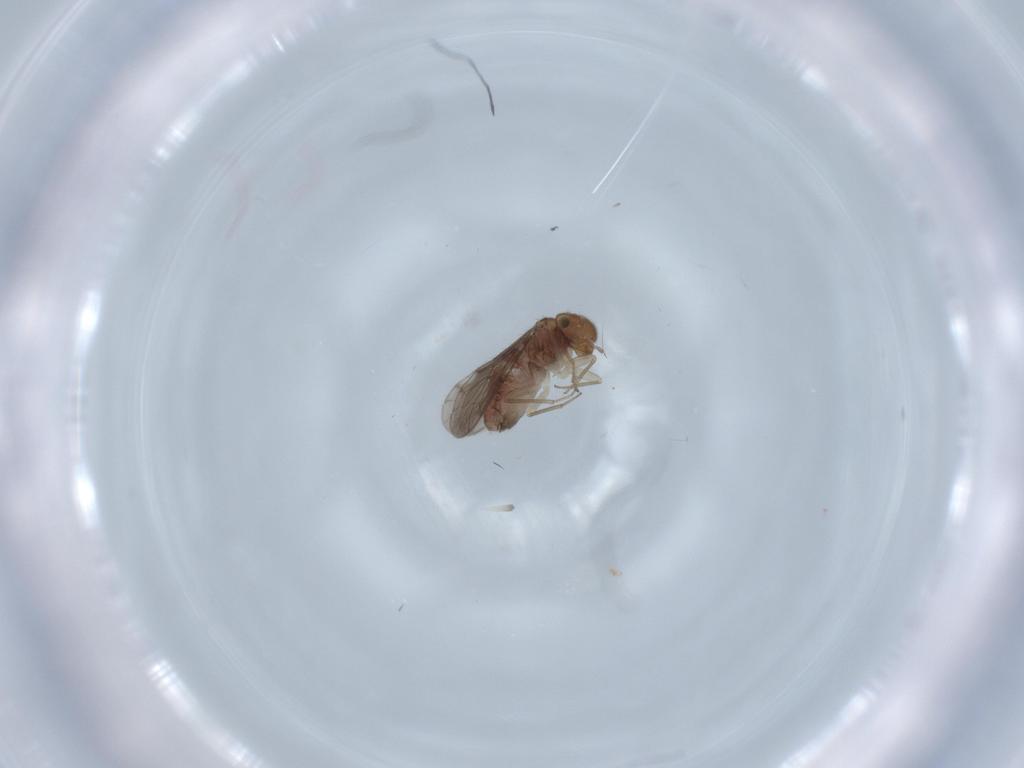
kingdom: Animalia
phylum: Arthropoda
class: Insecta
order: Psocodea
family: Ectopsocidae
